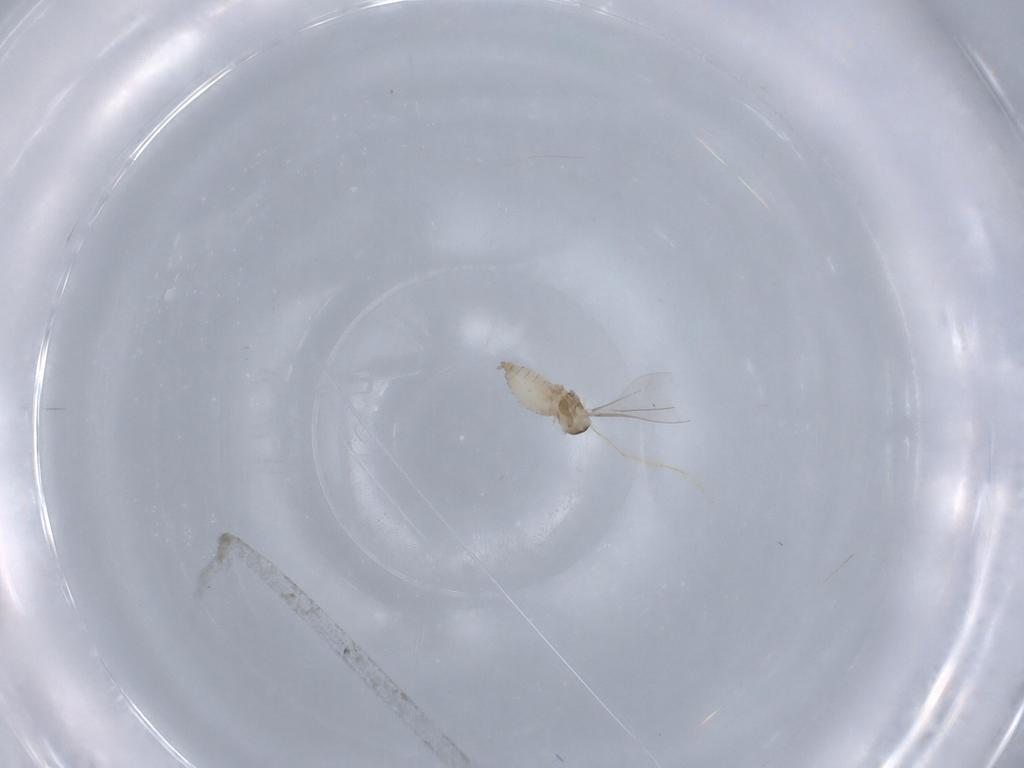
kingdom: Animalia
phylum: Arthropoda
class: Insecta
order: Diptera
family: Cecidomyiidae
